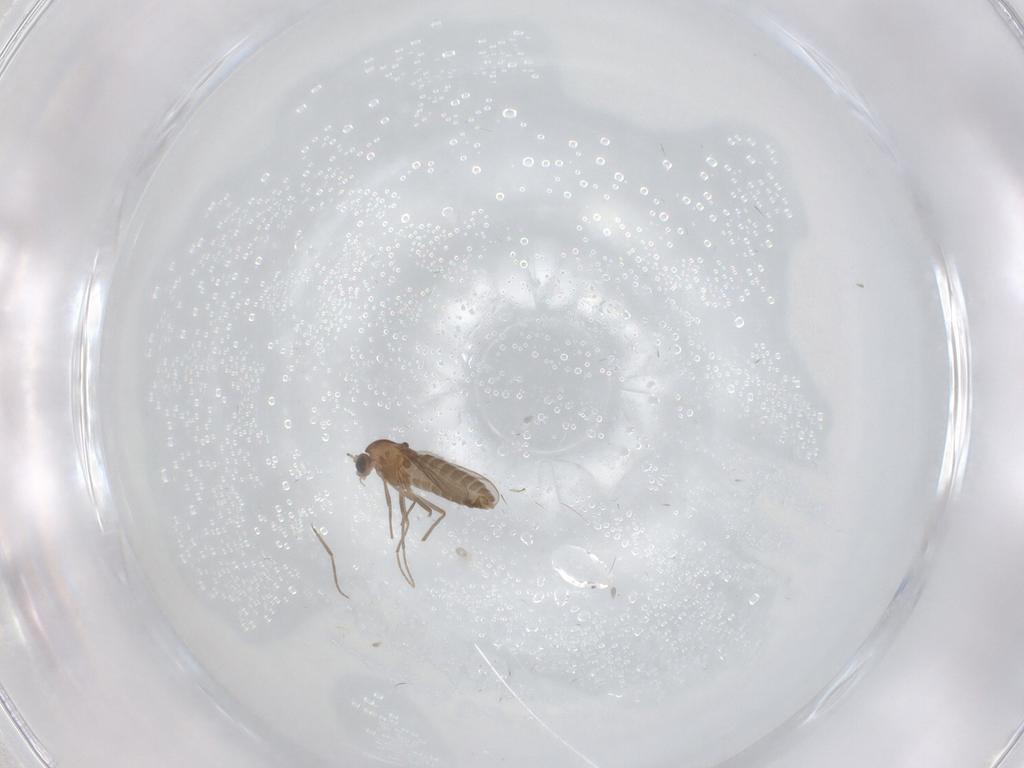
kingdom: Animalia
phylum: Arthropoda
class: Insecta
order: Diptera
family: Chironomidae
